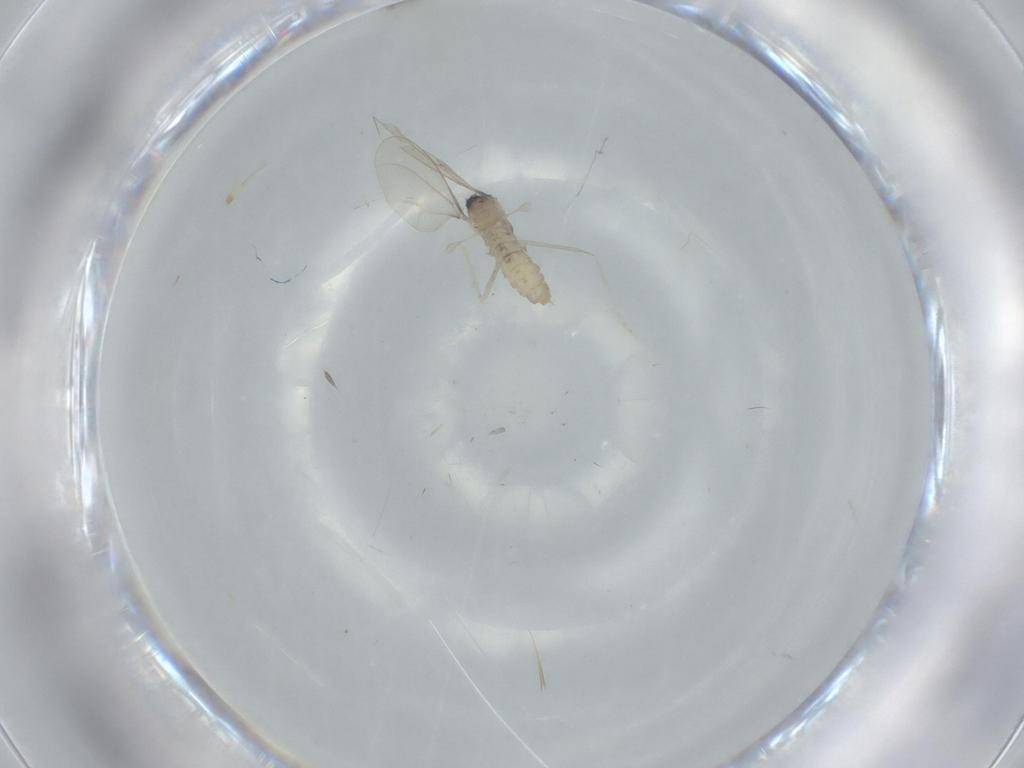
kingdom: Animalia
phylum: Arthropoda
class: Insecta
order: Diptera
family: Cecidomyiidae
